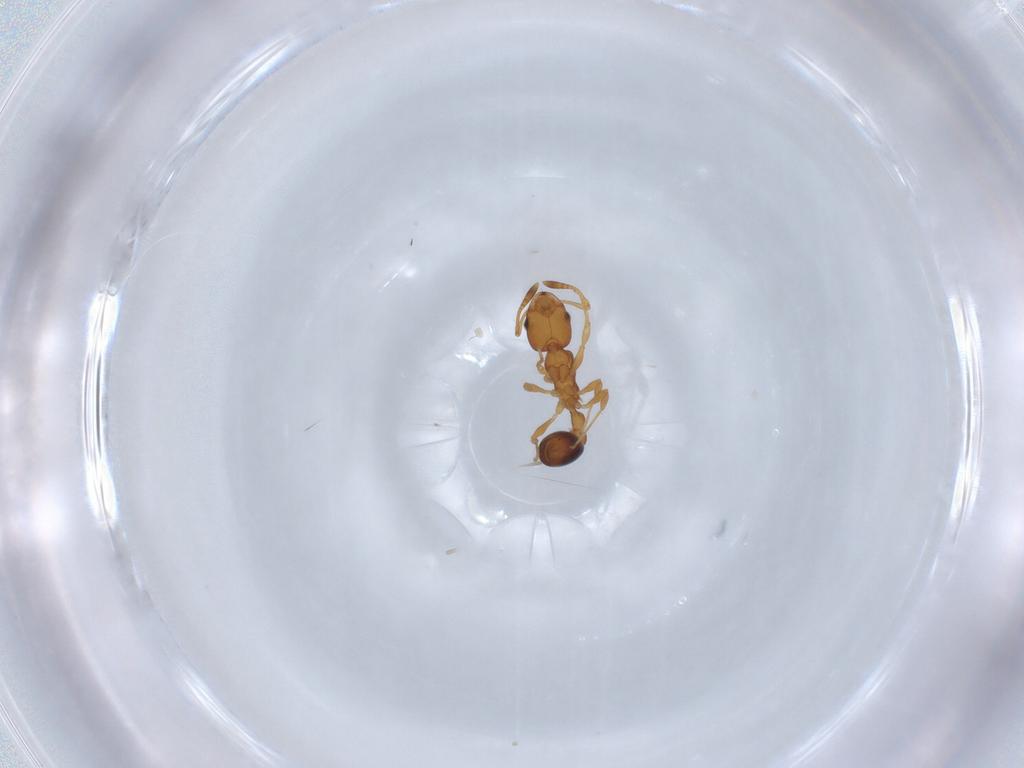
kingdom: Animalia
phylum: Arthropoda
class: Insecta
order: Hymenoptera
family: Formicidae
